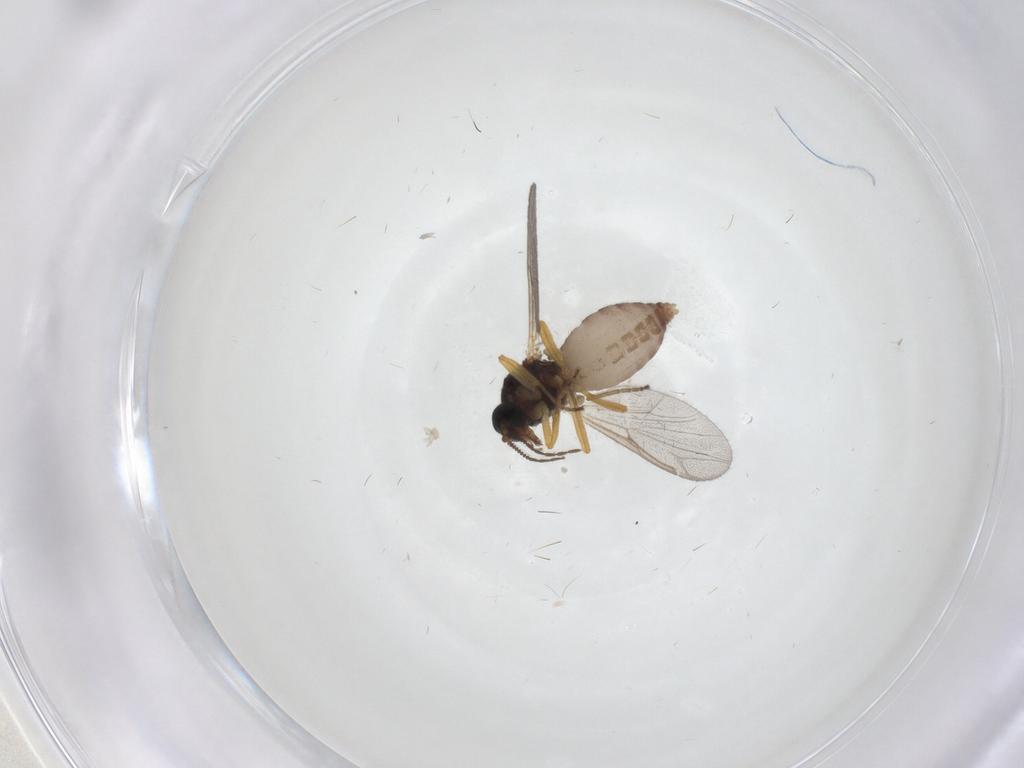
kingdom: Animalia
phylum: Arthropoda
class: Insecta
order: Diptera
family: Ceratopogonidae
